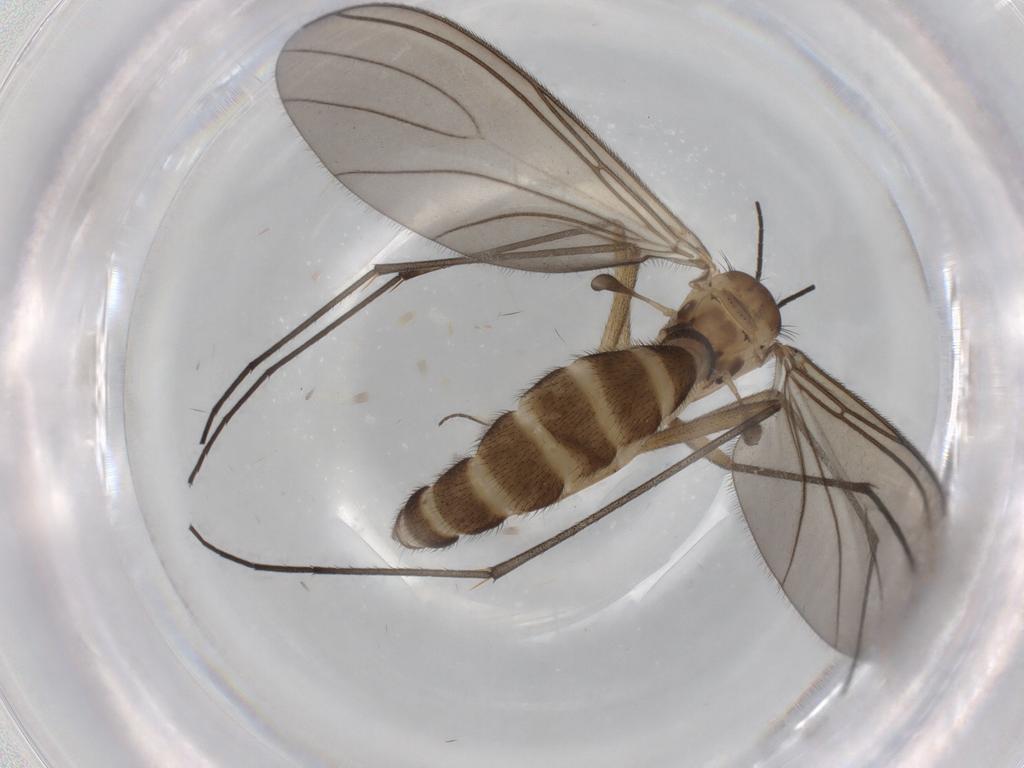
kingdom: Animalia
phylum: Arthropoda
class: Insecta
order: Diptera
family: Sciaridae
